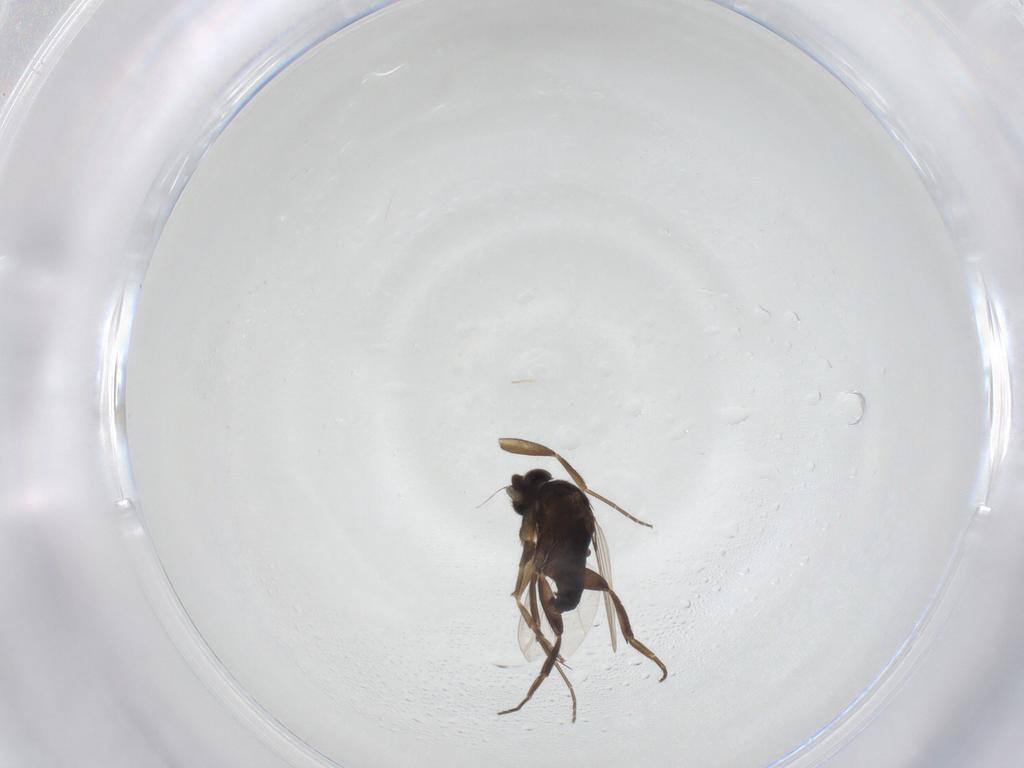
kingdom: Animalia
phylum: Arthropoda
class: Insecta
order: Diptera
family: Phoridae
